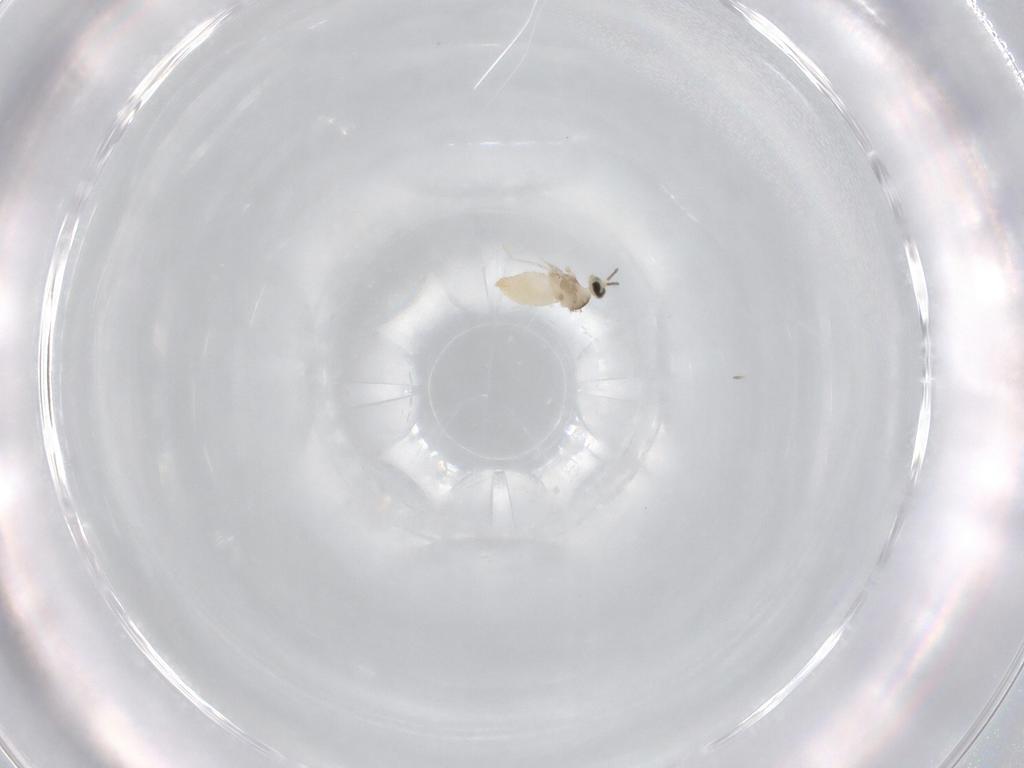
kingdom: Animalia
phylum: Arthropoda
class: Insecta
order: Diptera
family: Cecidomyiidae
